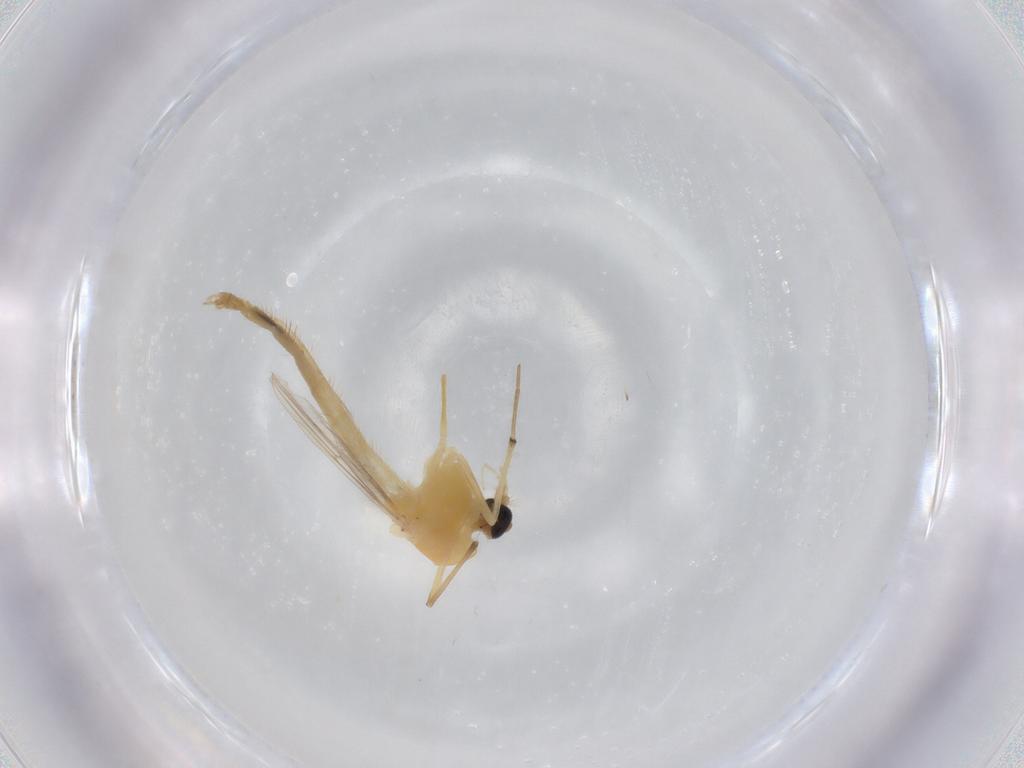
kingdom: Animalia
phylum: Arthropoda
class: Insecta
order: Diptera
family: Chironomidae
